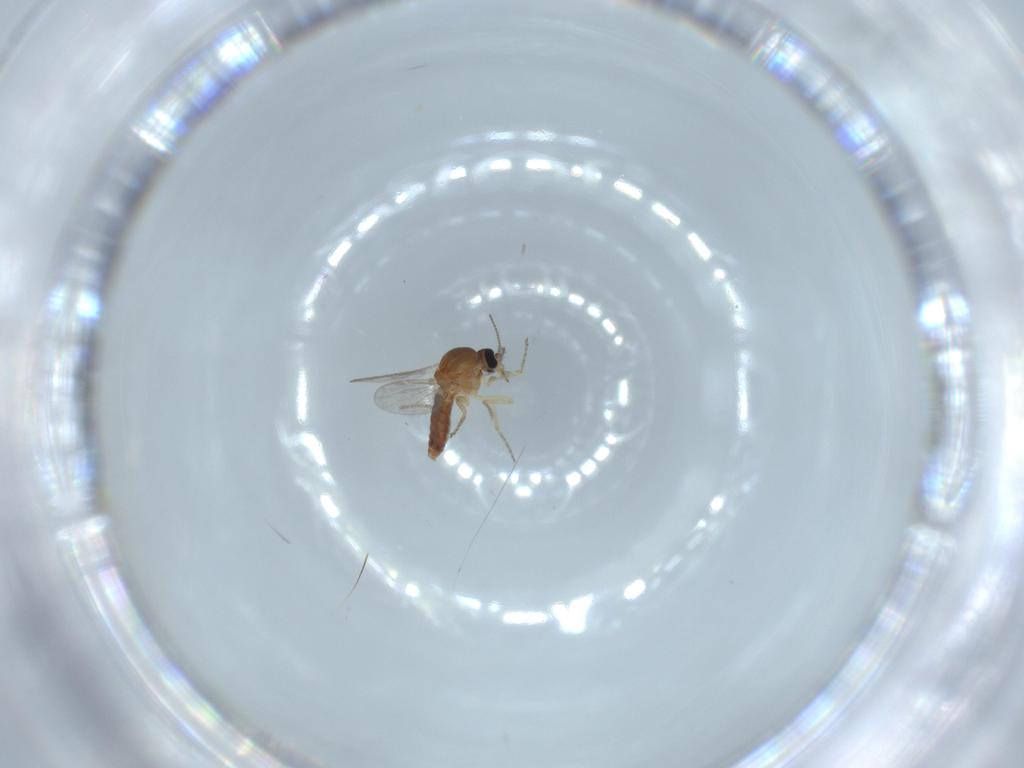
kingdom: Animalia
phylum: Arthropoda
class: Insecta
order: Diptera
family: Ceratopogonidae
